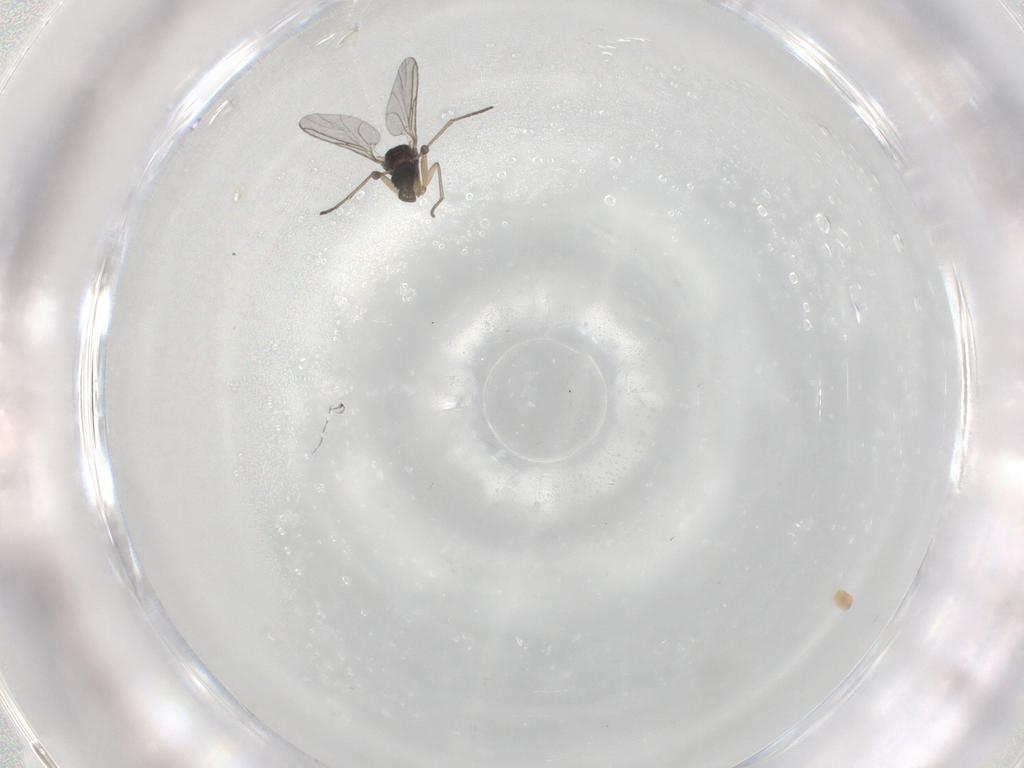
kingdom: Animalia
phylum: Arthropoda
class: Insecta
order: Diptera
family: Sciaridae
